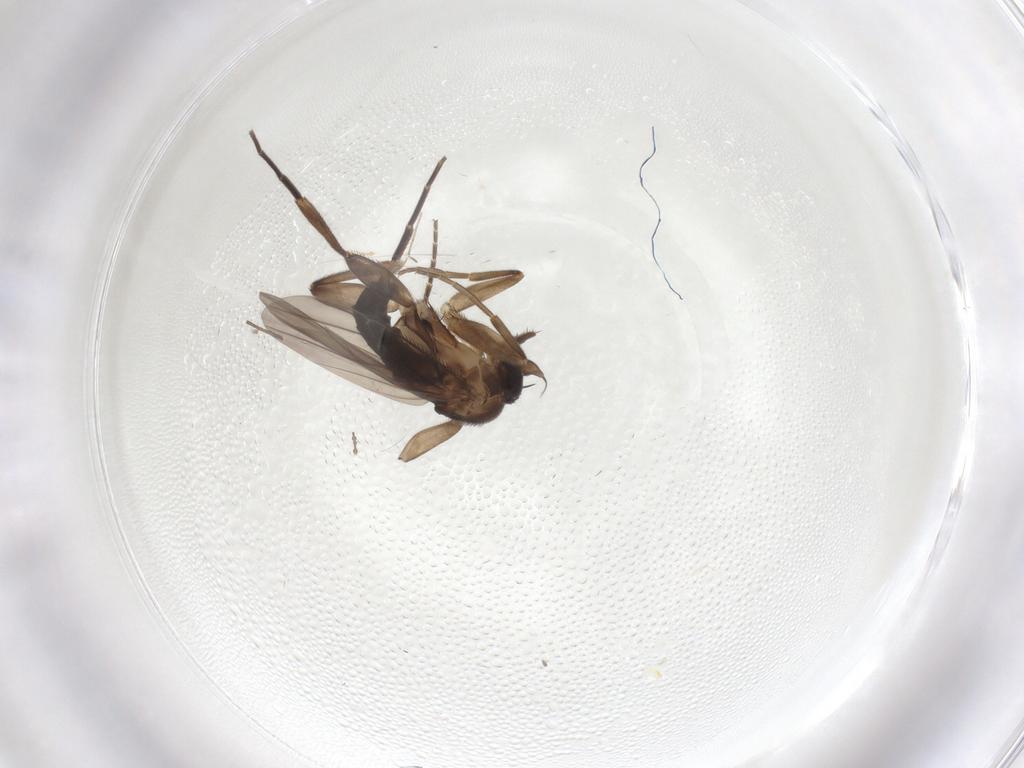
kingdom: Animalia
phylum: Arthropoda
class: Insecta
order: Diptera
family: Phoridae
